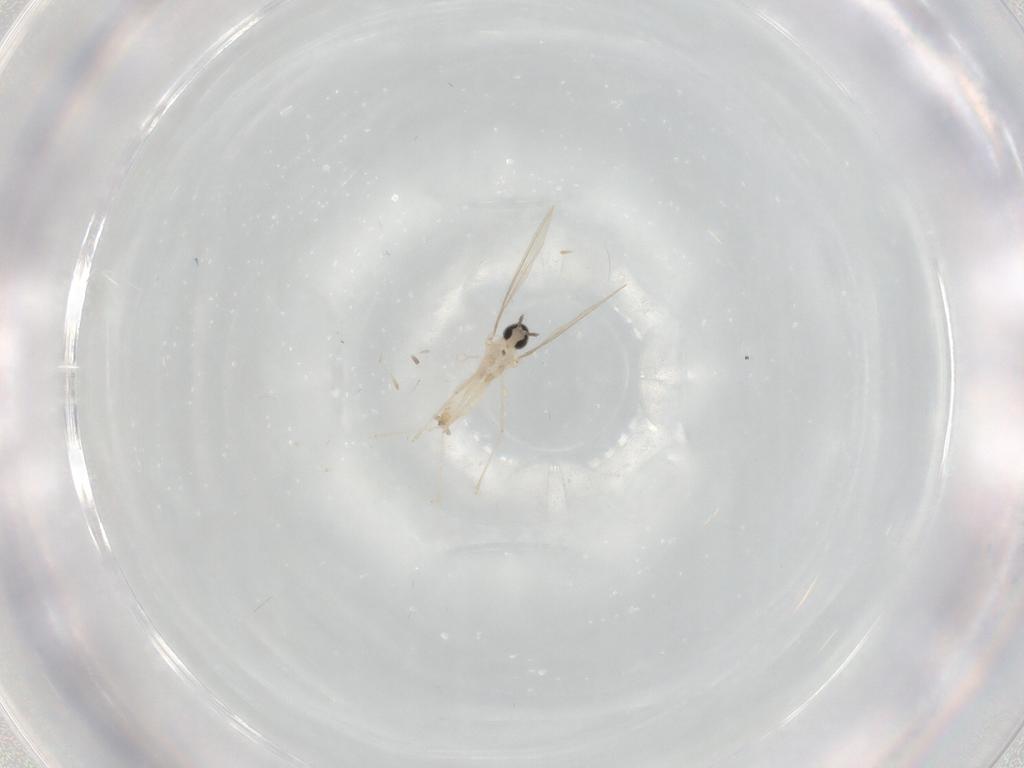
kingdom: Animalia
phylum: Arthropoda
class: Insecta
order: Diptera
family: Cecidomyiidae
